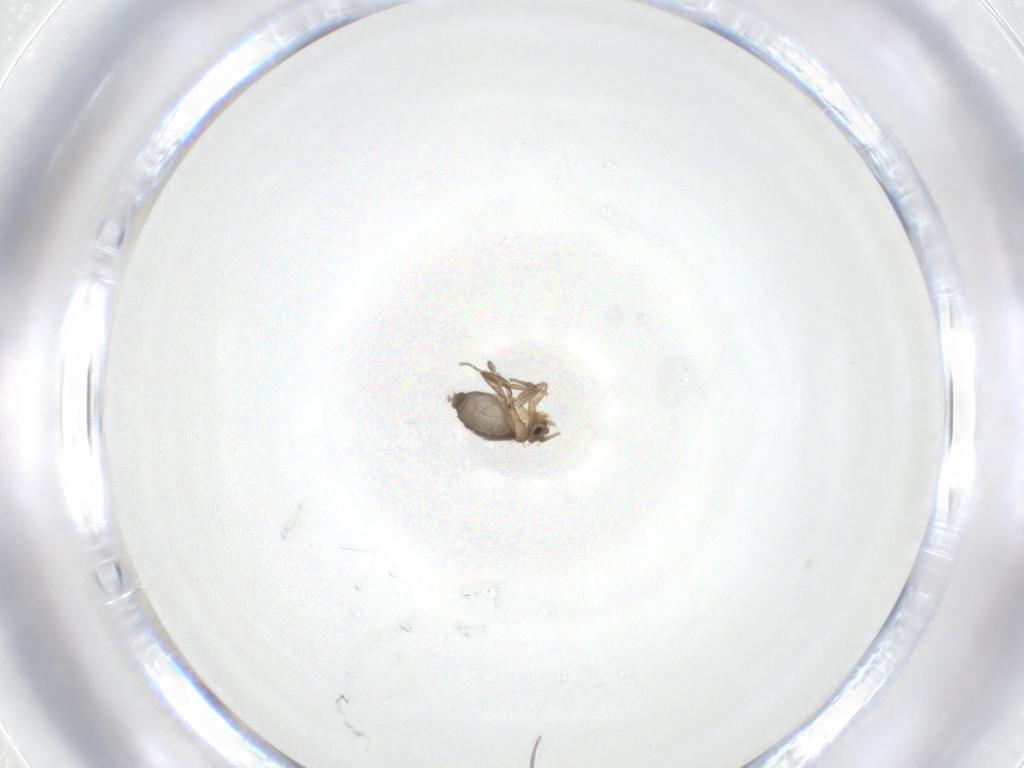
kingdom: Animalia
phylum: Arthropoda
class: Insecta
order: Diptera
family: Phoridae
